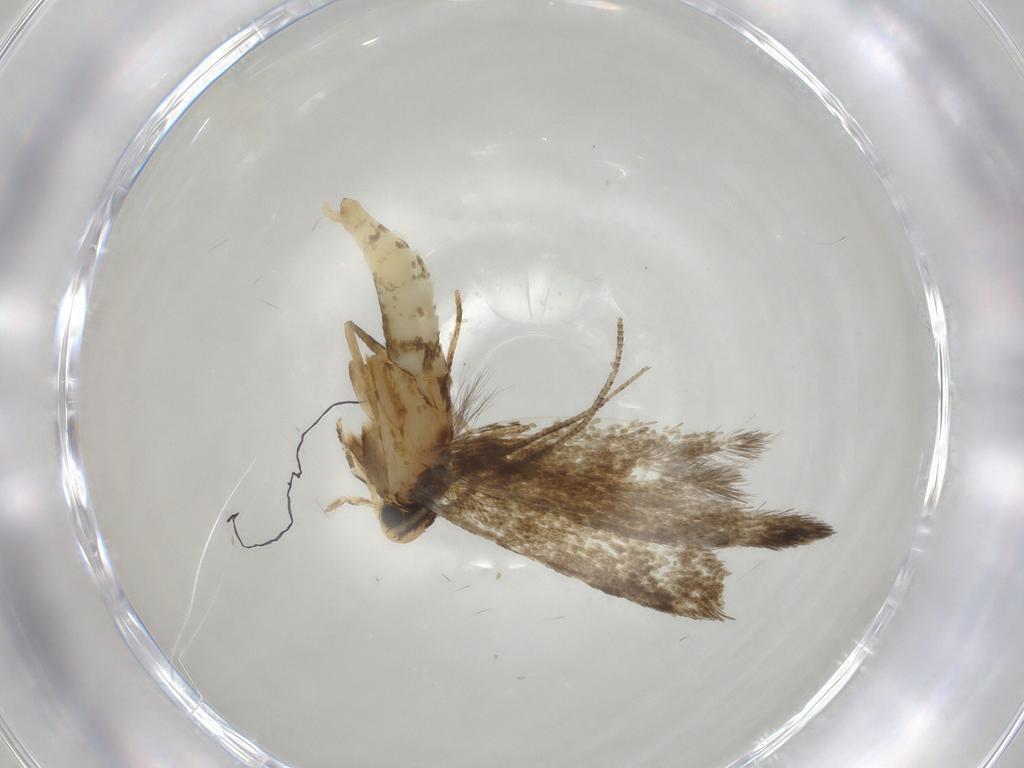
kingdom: Animalia
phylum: Arthropoda
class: Insecta
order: Lepidoptera
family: Tineidae
